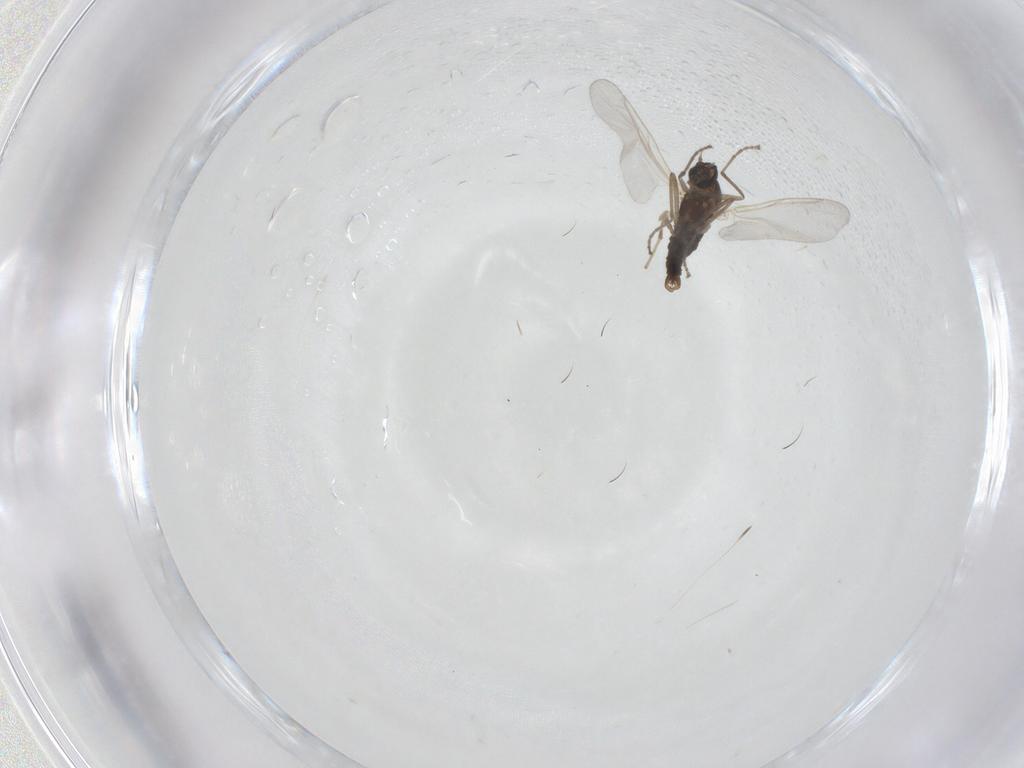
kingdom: Animalia
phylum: Arthropoda
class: Insecta
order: Diptera
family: Cecidomyiidae
